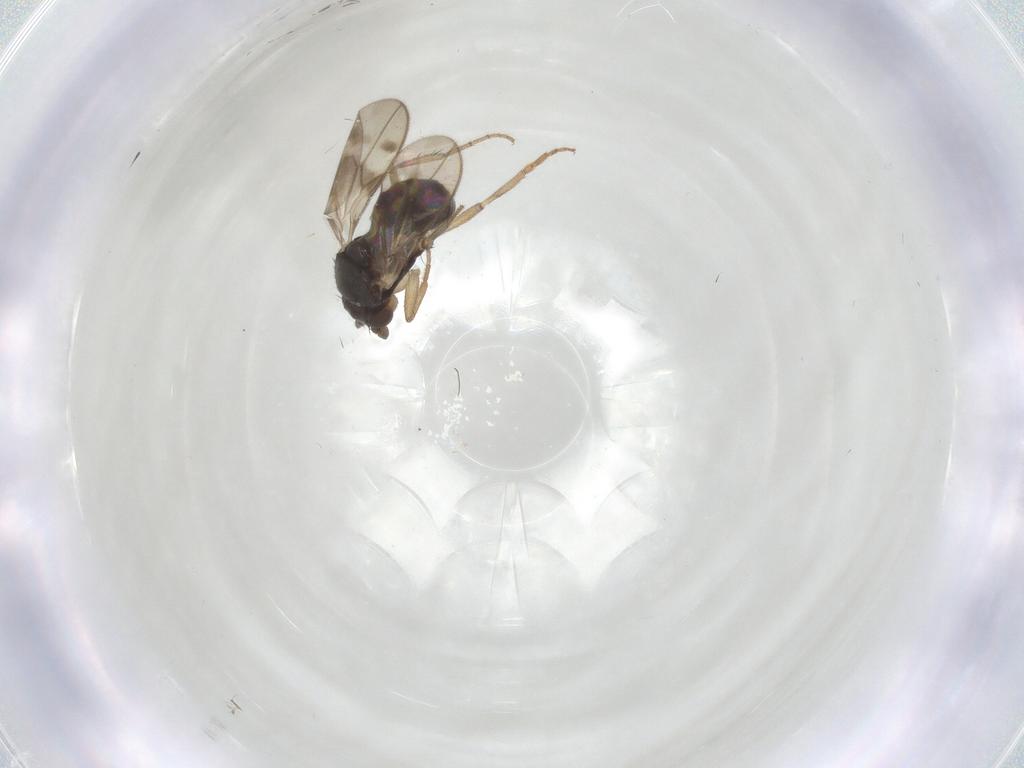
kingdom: Animalia
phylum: Arthropoda
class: Insecta
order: Diptera
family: Sphaeroceridae
